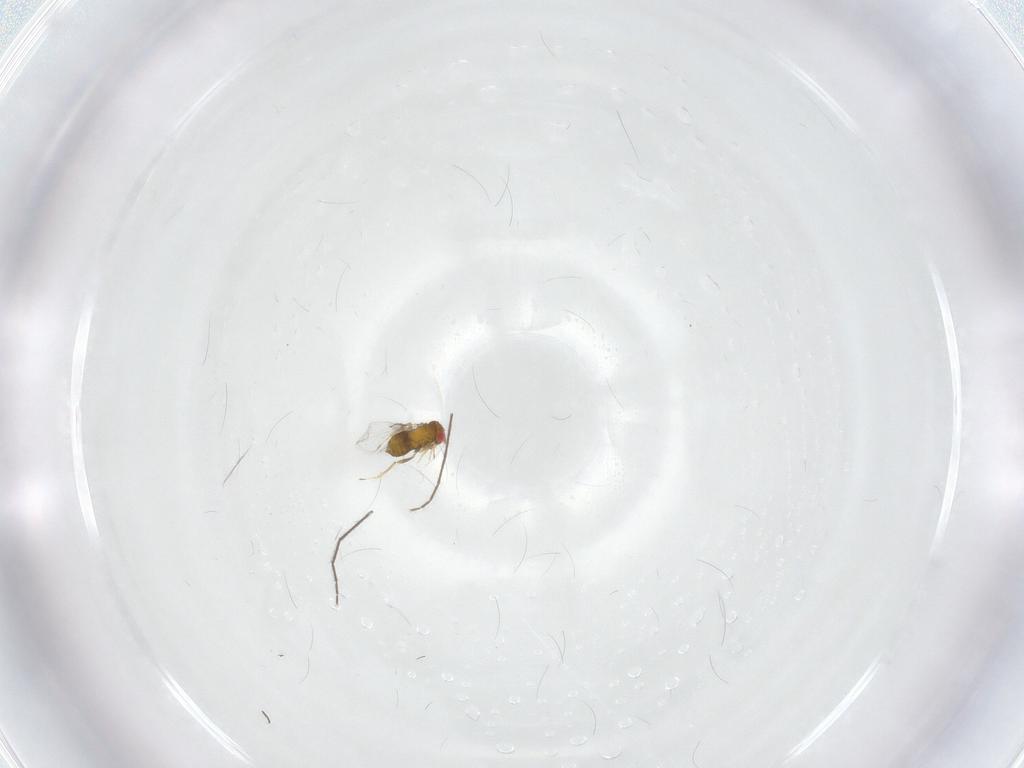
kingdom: Animalia
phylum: Arthropoda
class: Insecta
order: Hymenoptera
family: Trichogrammatidae
